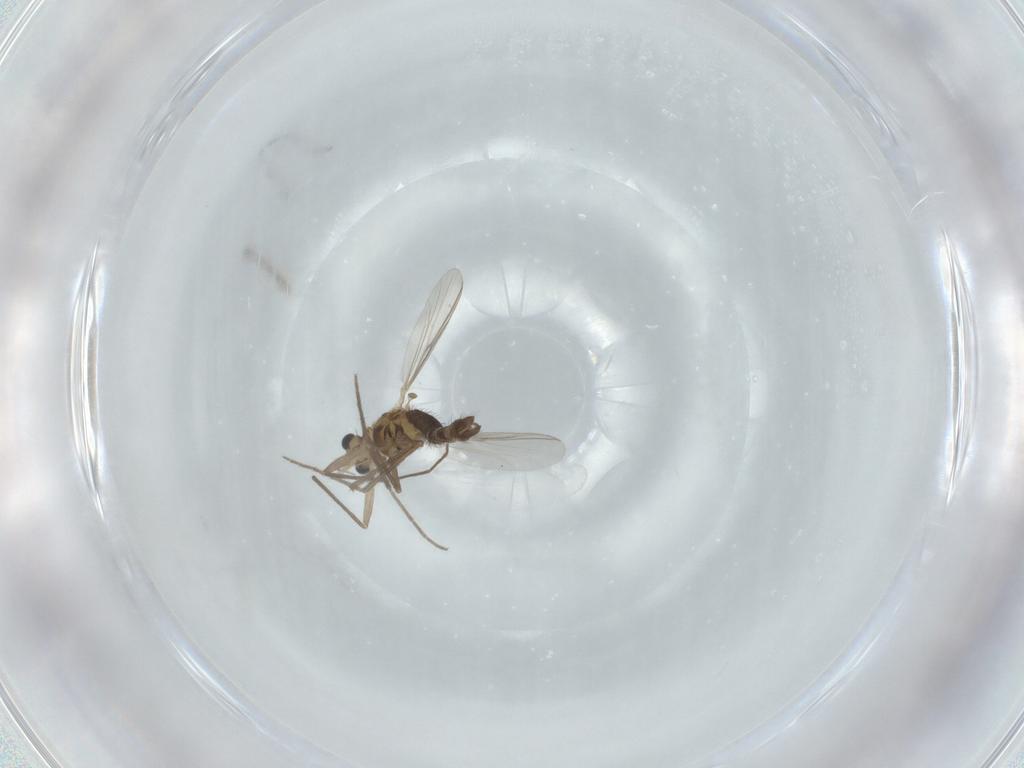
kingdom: Animalia
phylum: Arthropoda
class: Insecta
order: Diptera
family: Chironomidae
